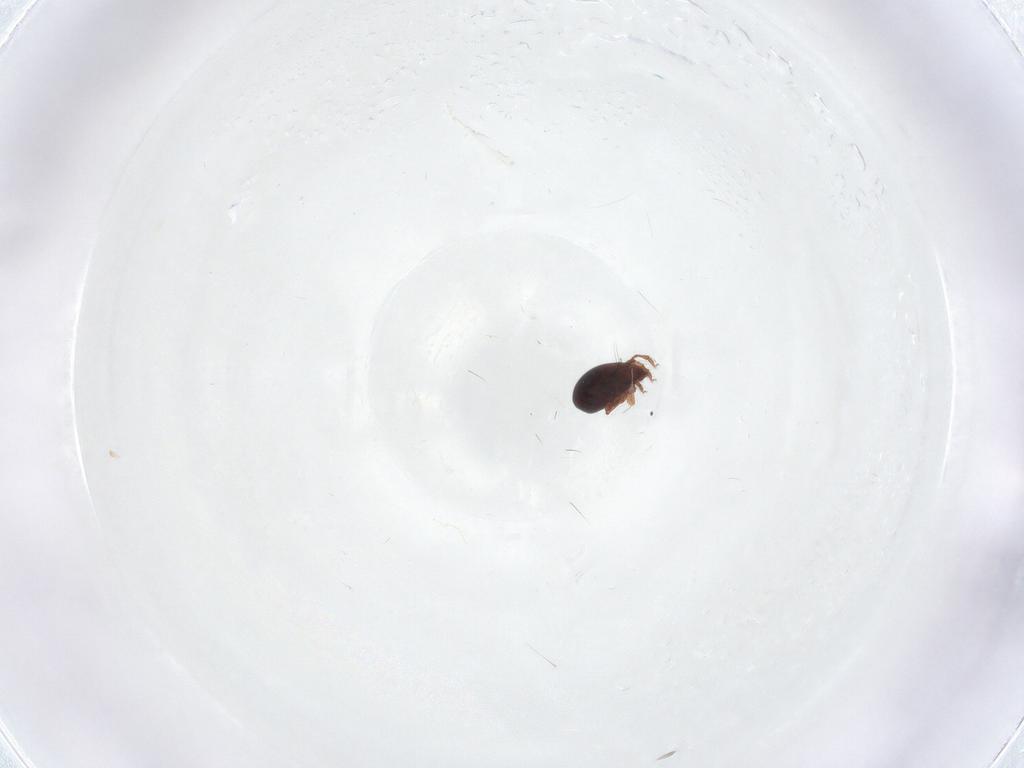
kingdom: Animalia
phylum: Arthropoda
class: Arachnida
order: Sarcoptiformes
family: Ceratozetidae
